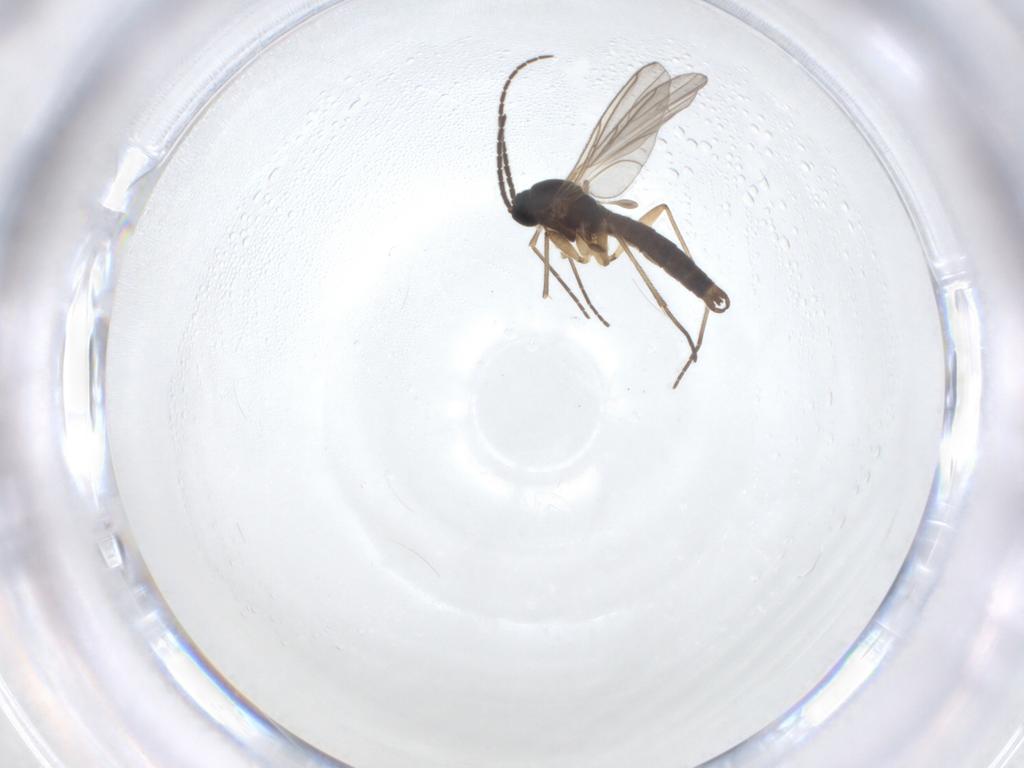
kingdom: Animalia
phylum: Arthropoda
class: Insecta
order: Diptera
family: Sciaridae
